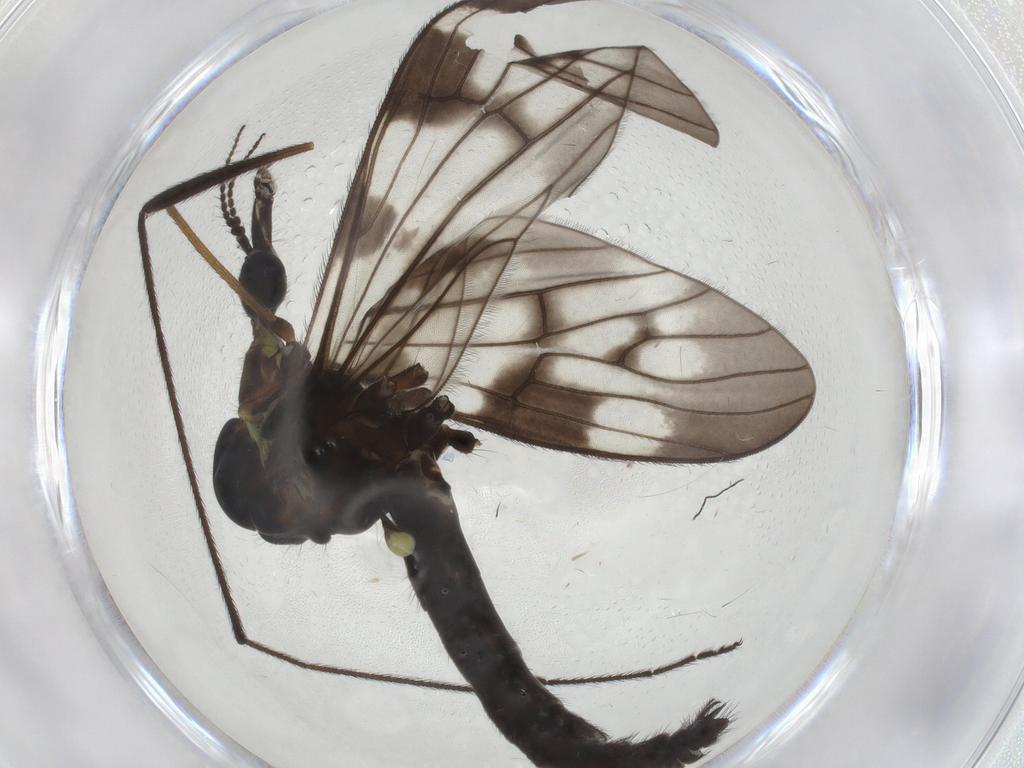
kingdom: Animalia
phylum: Arthropoda
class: Insecta
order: Diptera
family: Limoniidae
